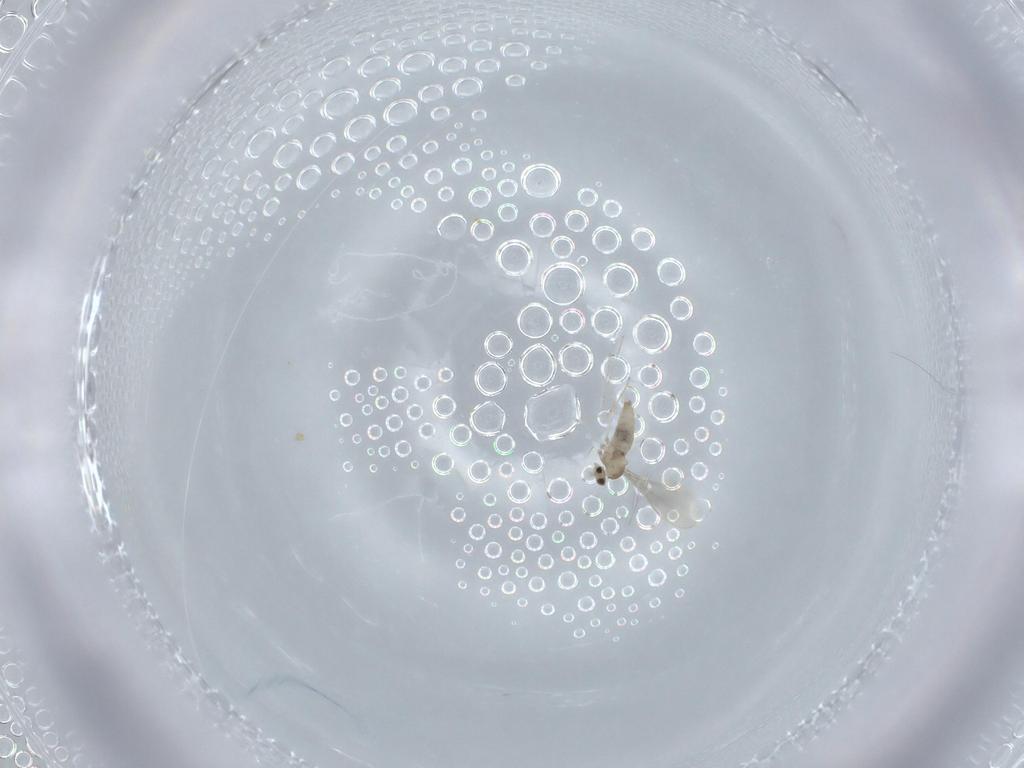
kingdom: Animalia
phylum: Arthropoda
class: Insecta
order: Diptera
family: Cecidomyiidae
